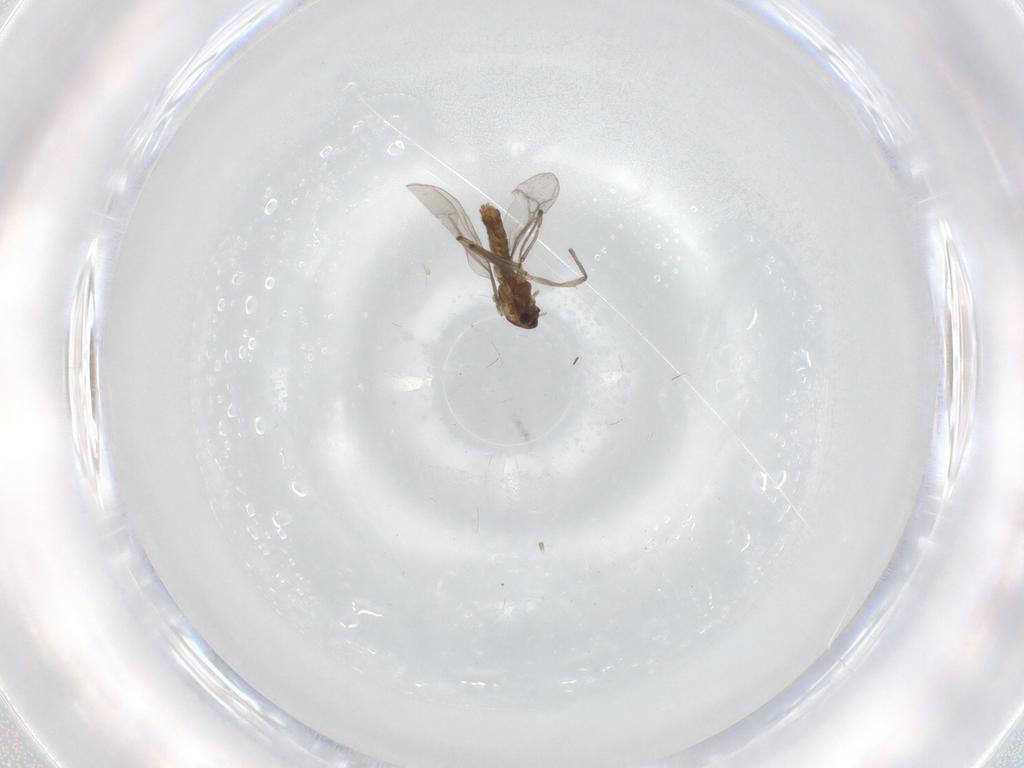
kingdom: Animalia
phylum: Arthropoda
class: Insecta
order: Diptera
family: Chironomidae
